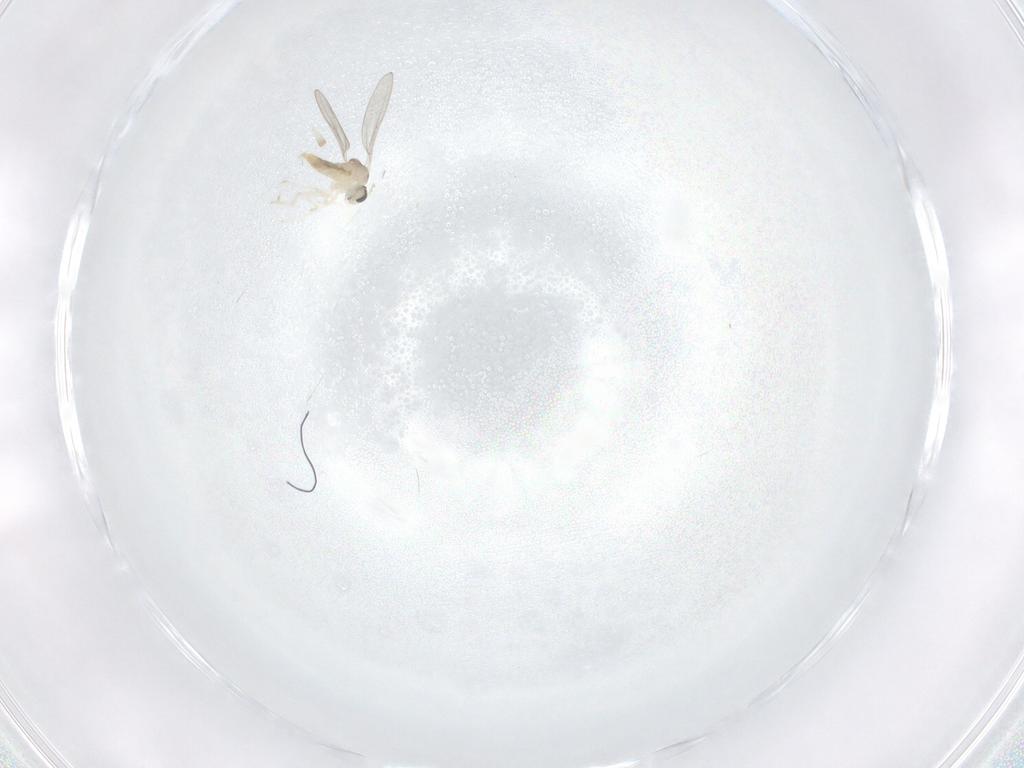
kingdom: Animalia
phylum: Arthropoda
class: Insecta
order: Diptera
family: Cecidomyiidae
